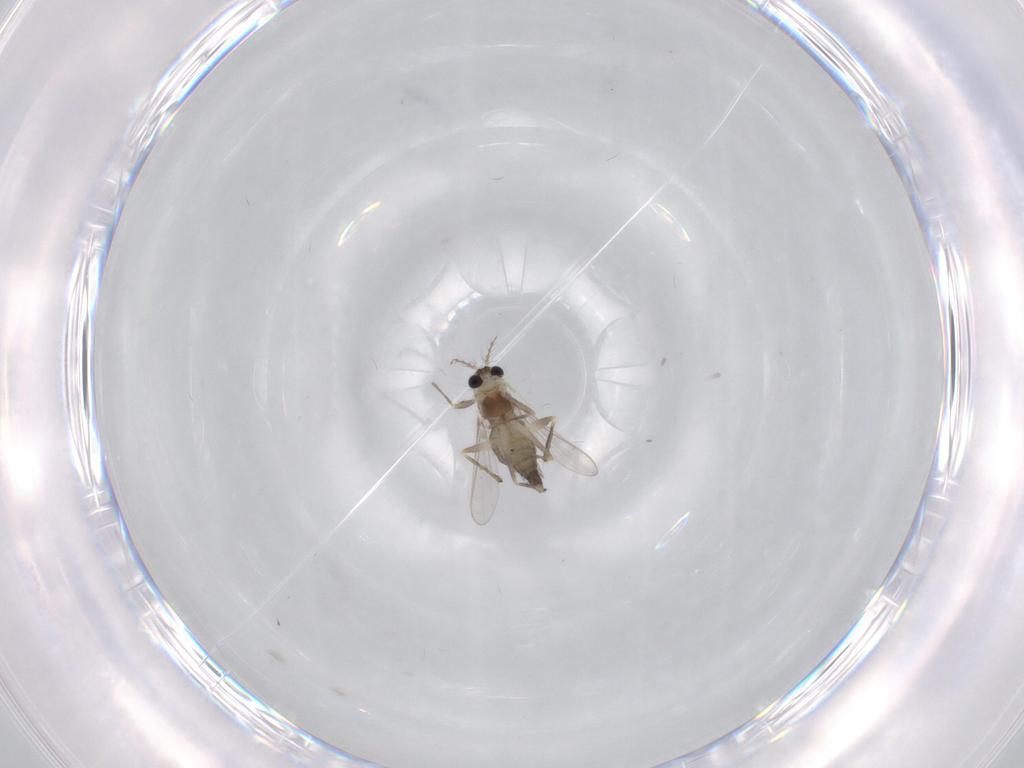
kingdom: Animalia
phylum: Arthropoda
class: Insecta
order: Diptera
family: Chironomidae
